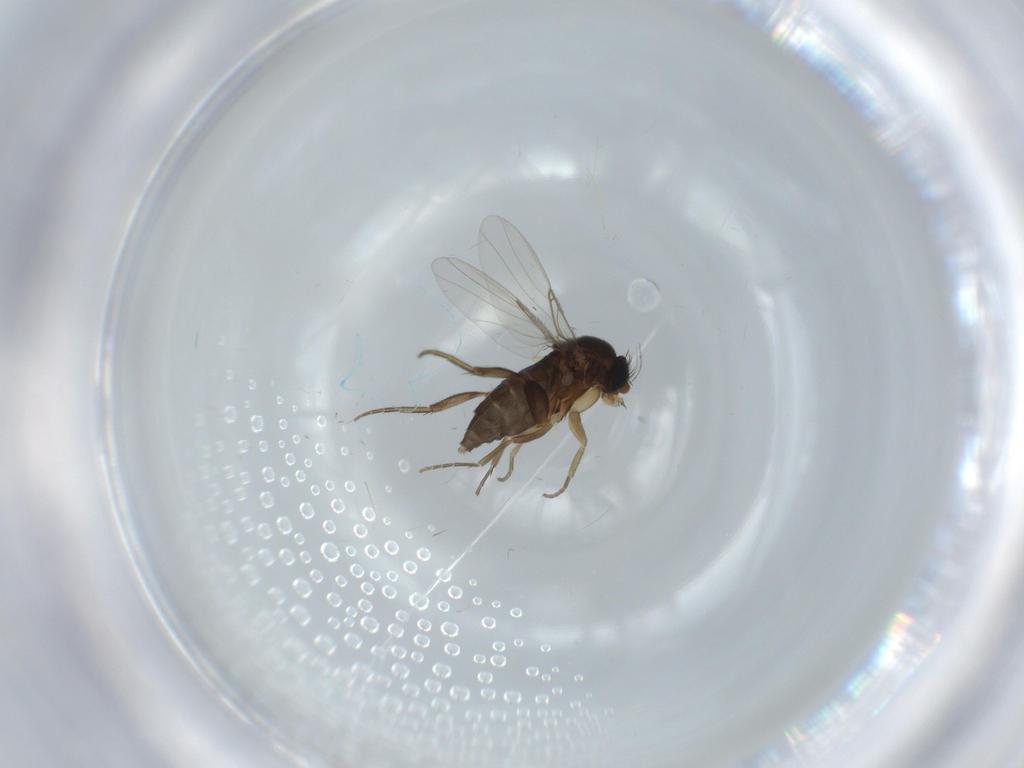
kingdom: Animalia
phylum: Arthropoda
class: Insecta
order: Diptera
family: Phoridae
